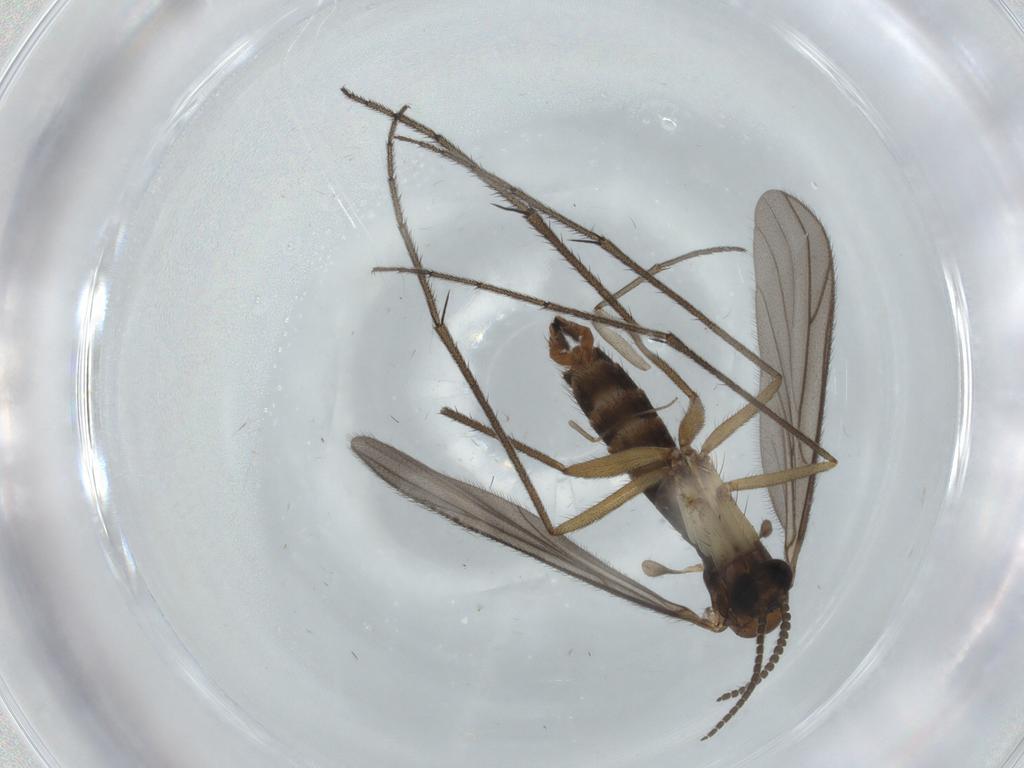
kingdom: Animalia
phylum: Arthropoda
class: Insecta
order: Diptera
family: Ditomyiidae
